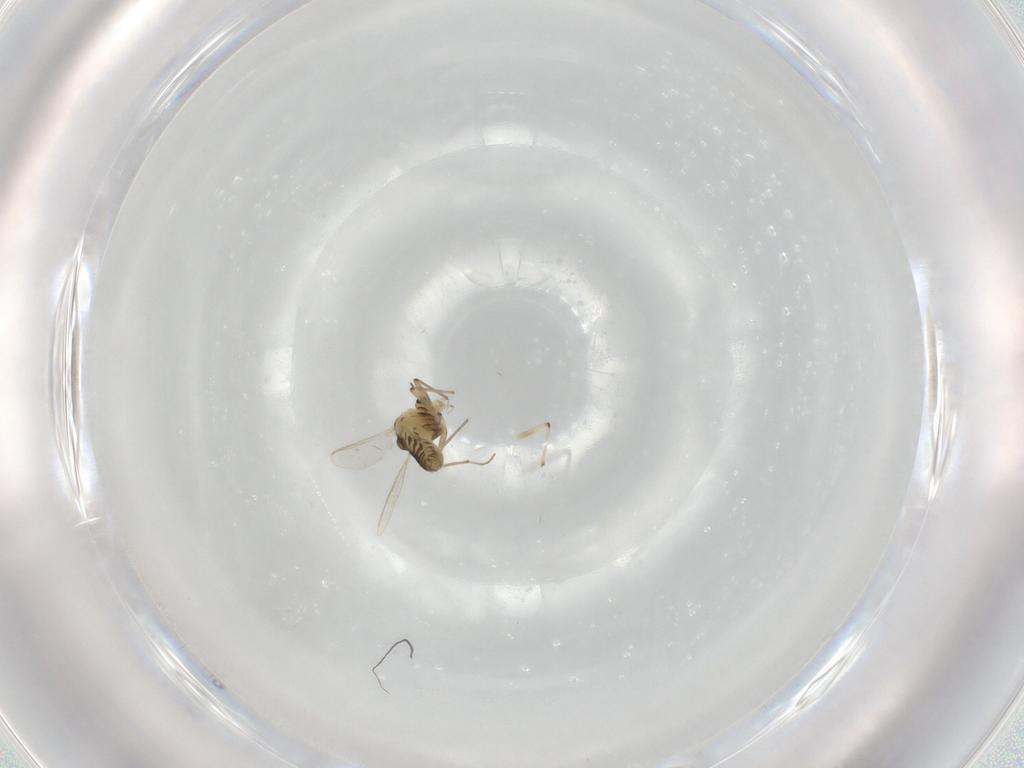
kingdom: Animalia
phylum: Arthropoda
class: Insecta
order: Diptera
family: Chironomidae
